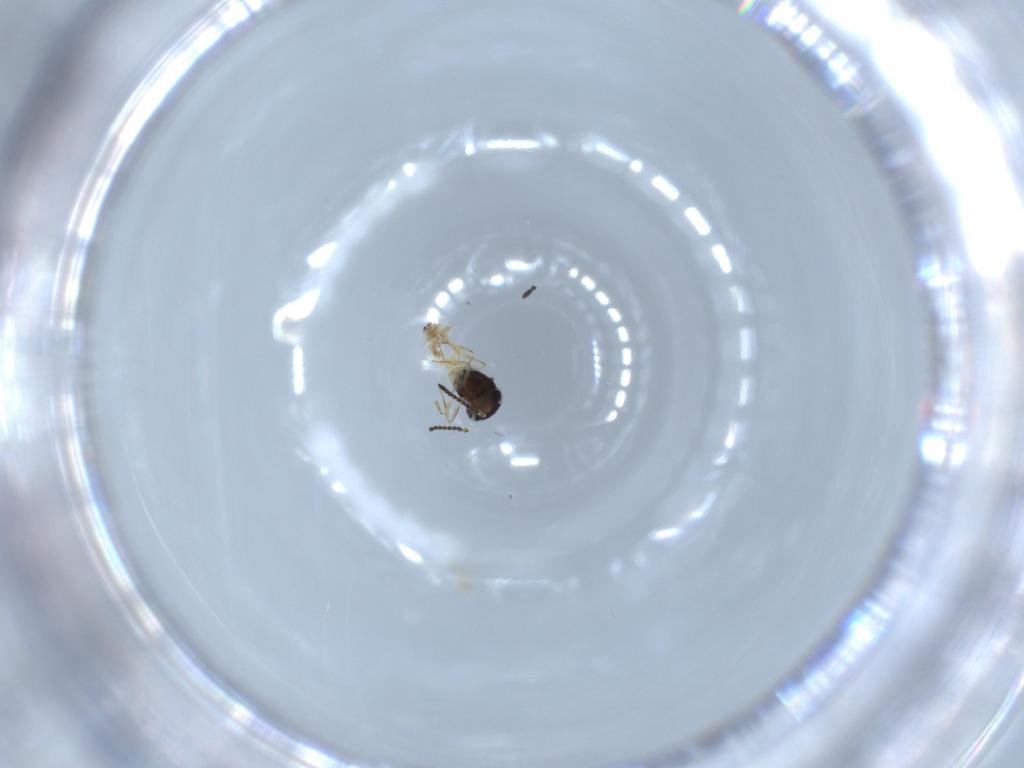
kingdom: Animalia
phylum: Arthropoda
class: Insecta
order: Hymenoptera
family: Scelionidae
